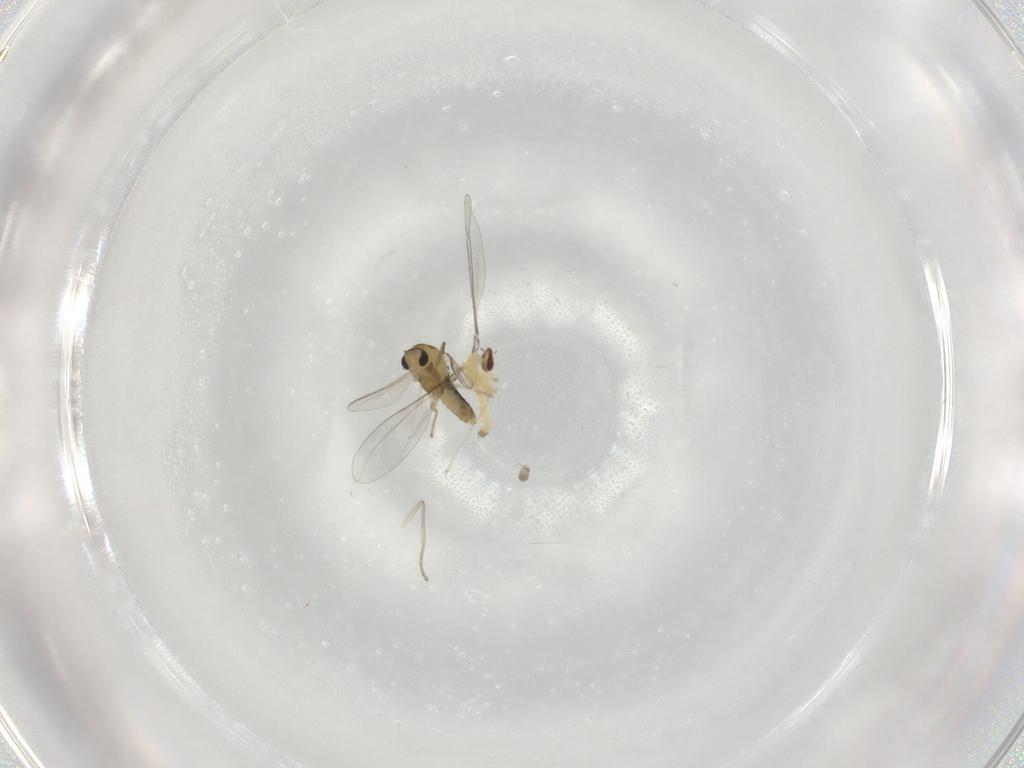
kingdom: Animalia
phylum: Arthropoda
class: Insecta
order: Diptera
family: Cecidomyiidae
